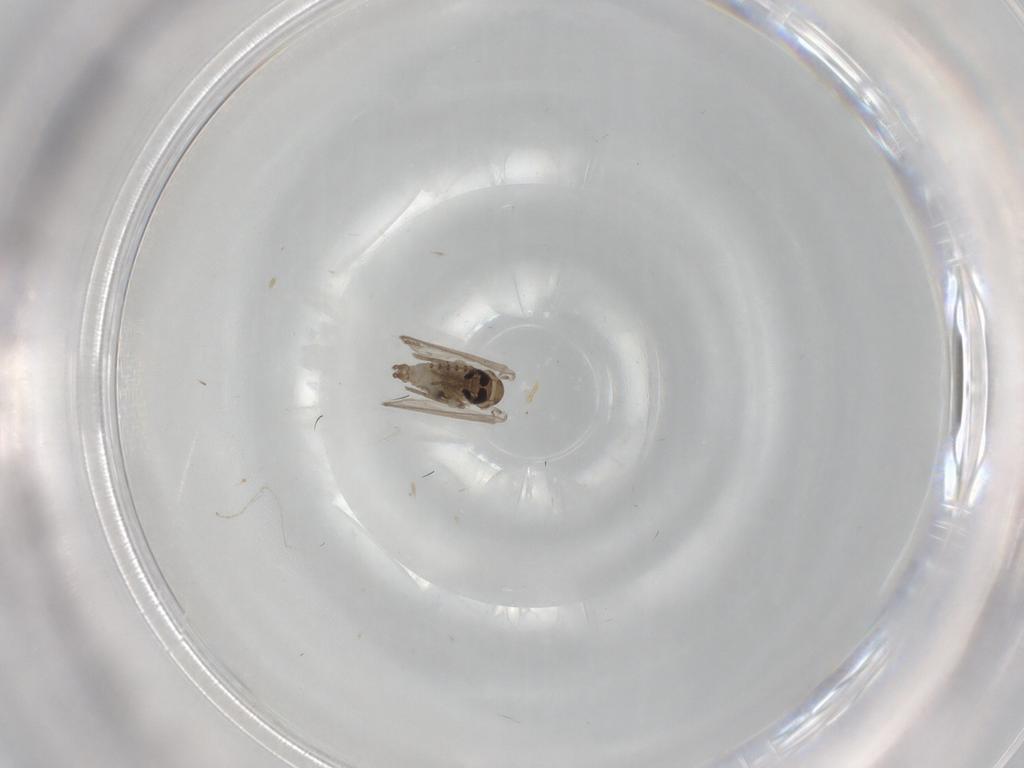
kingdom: Animalia
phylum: Arthropoda
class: Insecta
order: Diptera
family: Psychodidae
